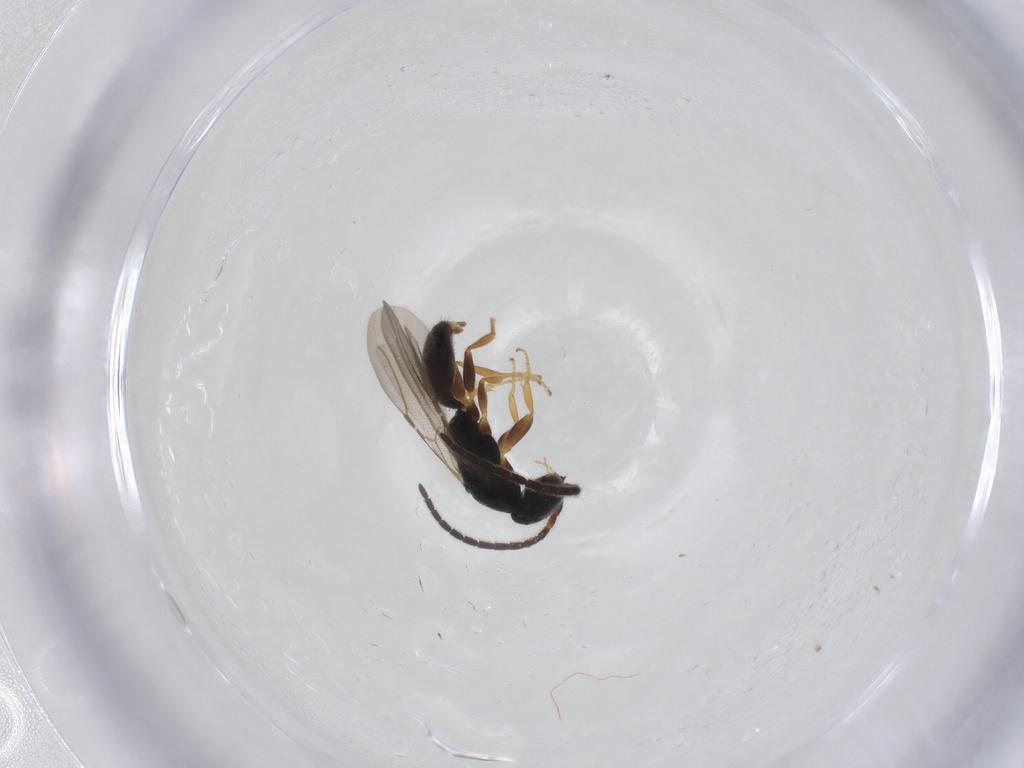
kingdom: Animalia
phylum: Arthropoda
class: Insecta
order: Hymenoptera
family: Bethylidae
